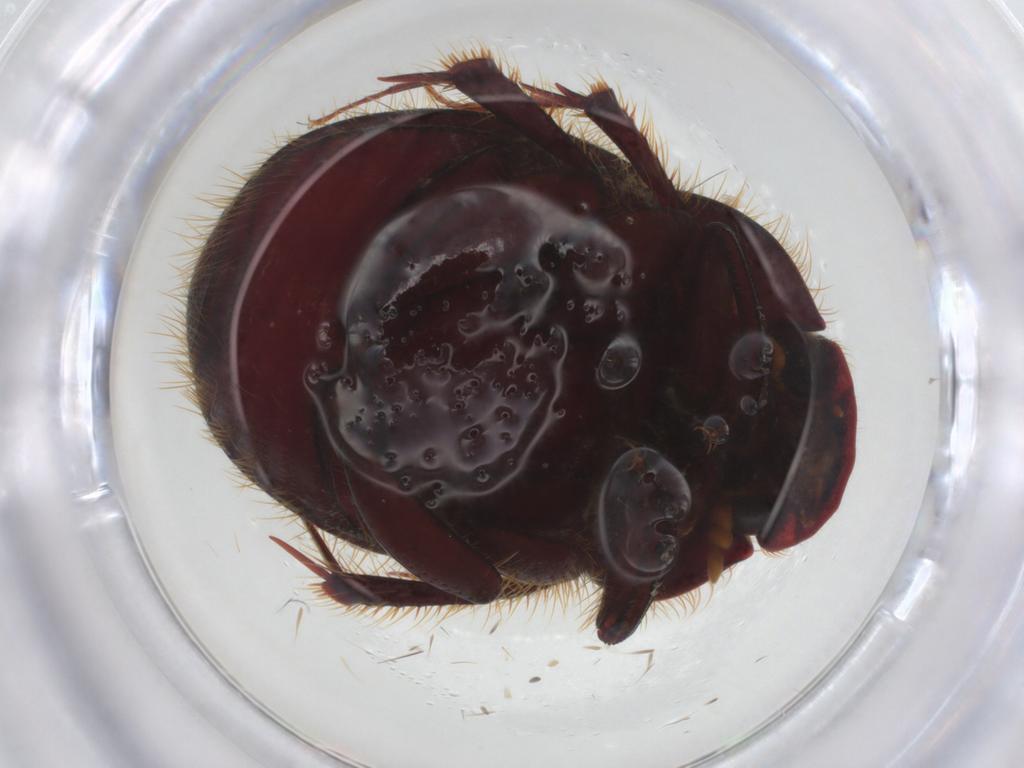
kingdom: Animalia
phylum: Arthropoda
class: Insecta
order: Coleoptera
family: Scarabaeidae
